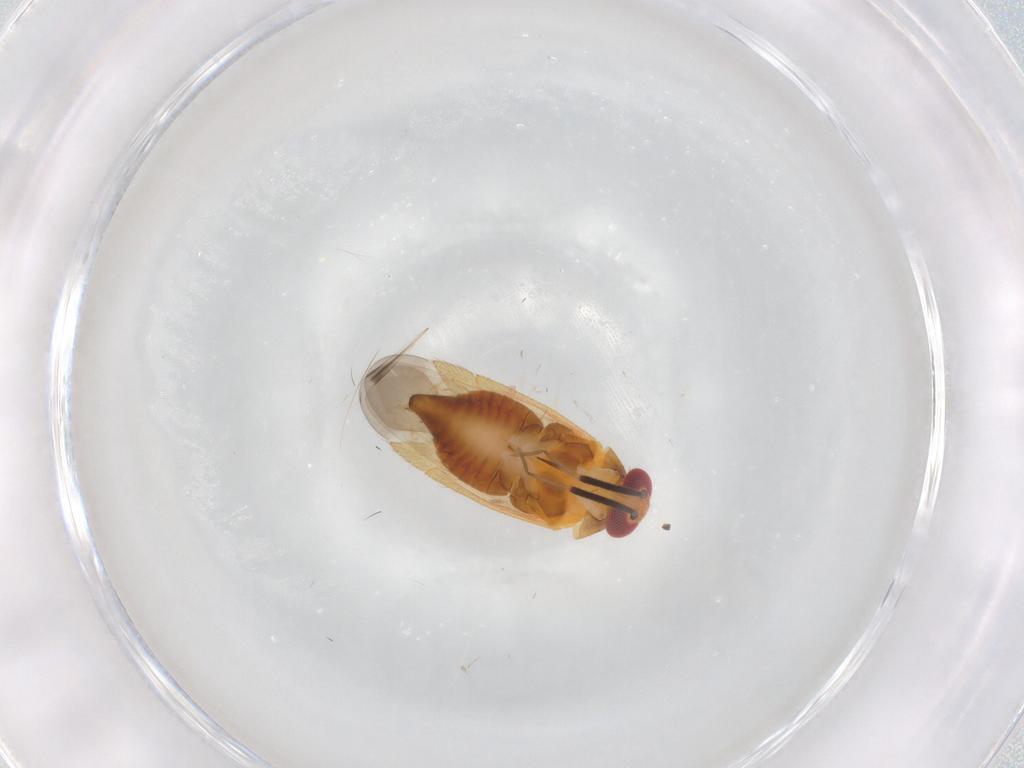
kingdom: Animalia
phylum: Arthropoda
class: Insecta
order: Hemiptera
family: Miridae
